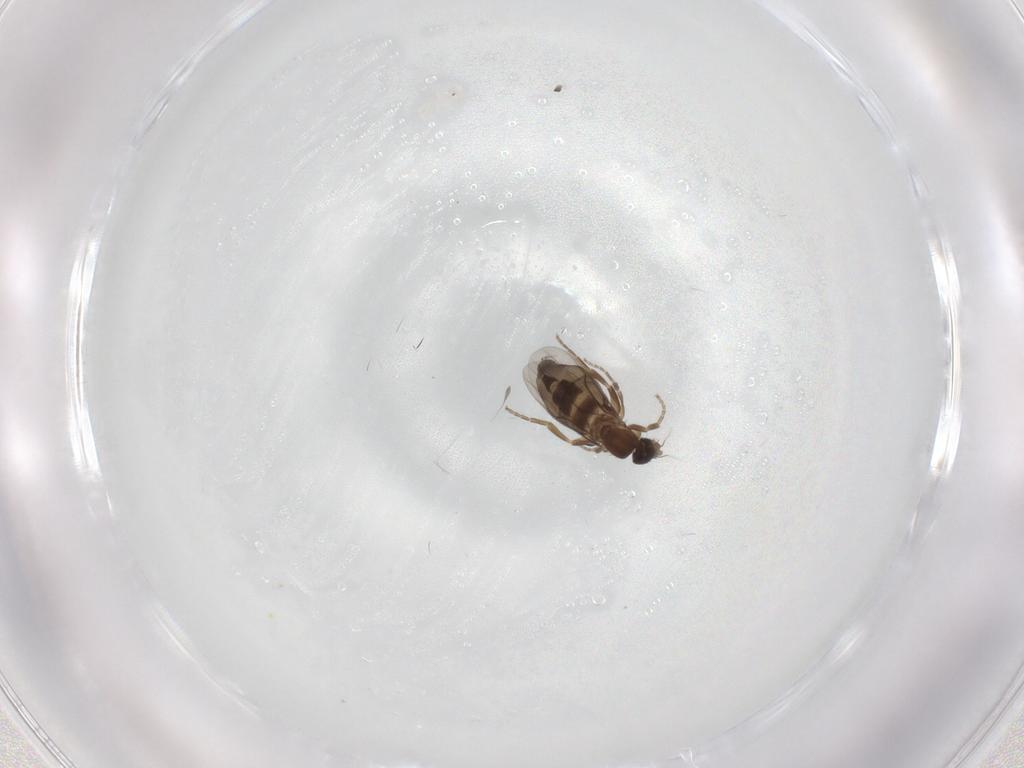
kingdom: Animalia
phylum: Arthropoda
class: Insecta
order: Diptera
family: Phoridae
